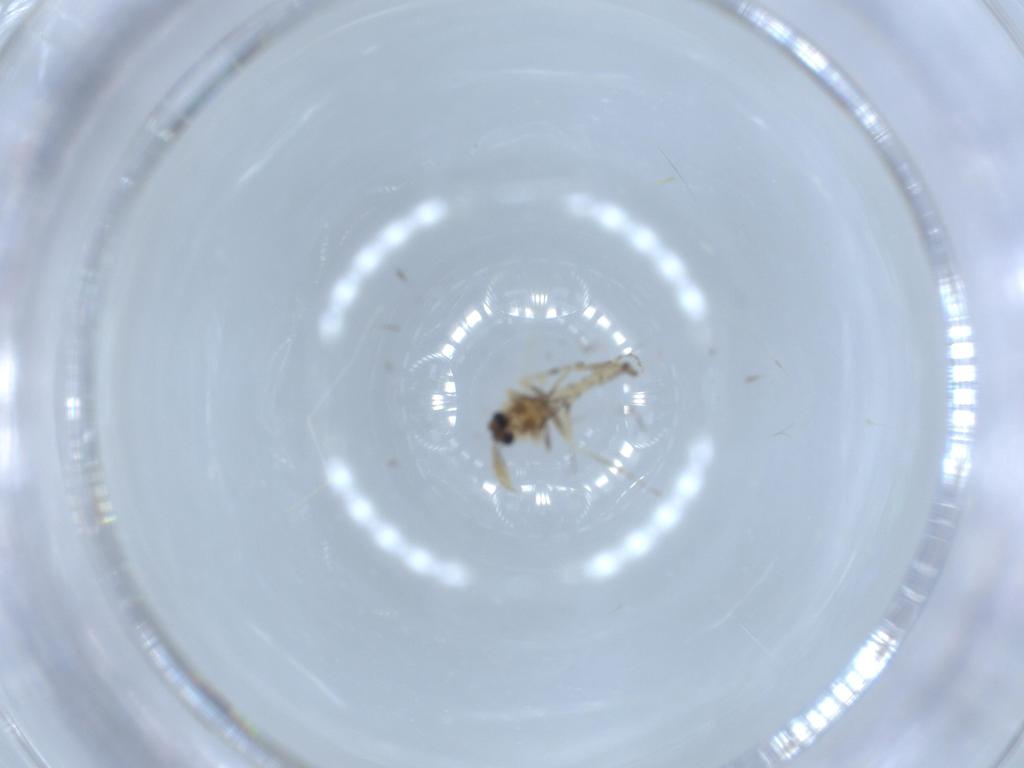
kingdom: Animalia
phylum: Arthropoda
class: Insecta
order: Diptera
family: Cecidomyiidae
